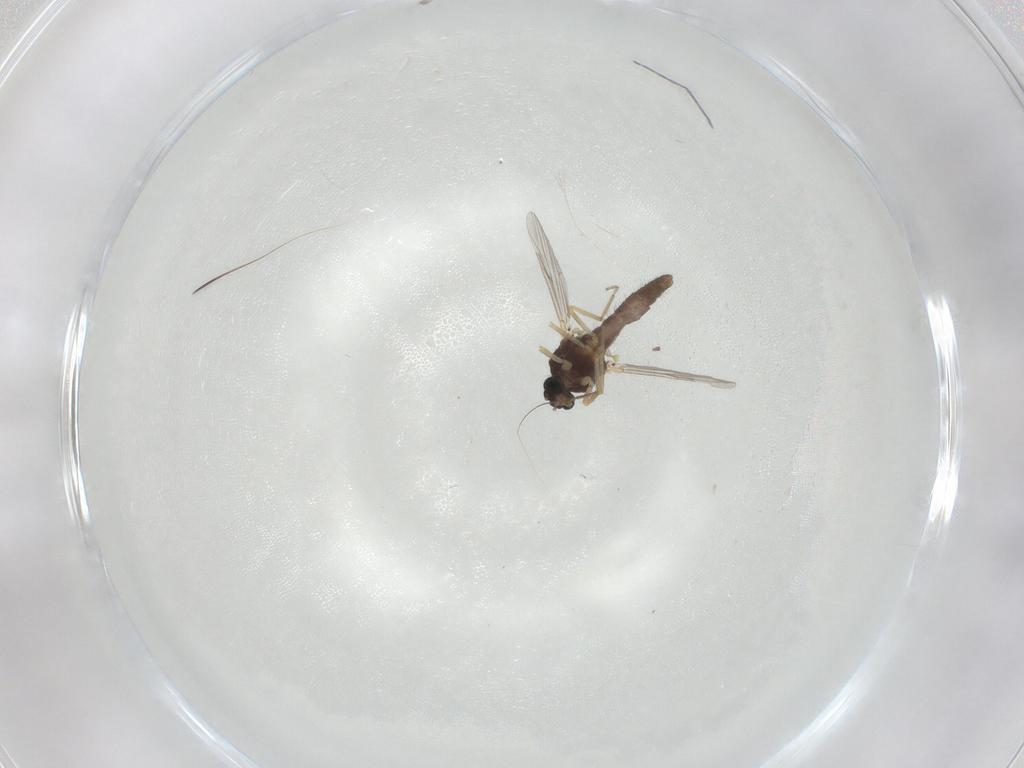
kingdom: Animalia
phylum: Arthropoda
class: Insecta
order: Diptera
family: Ceratopogonidae
